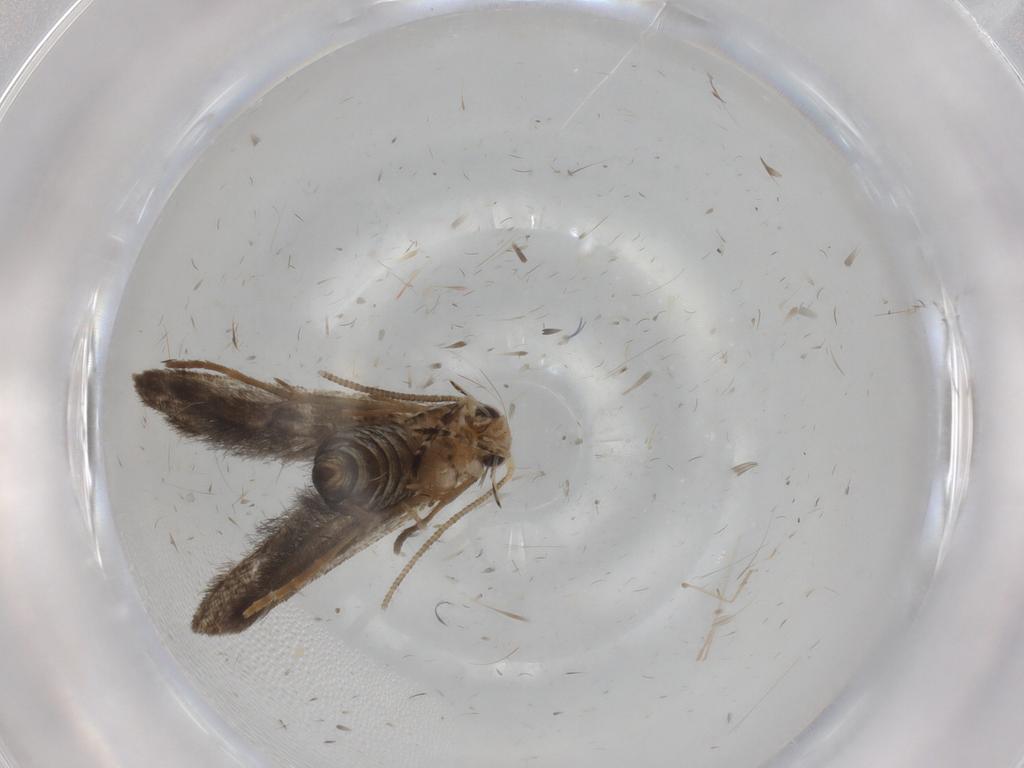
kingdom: Animalia
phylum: Arthropoda
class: Insecta
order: Lepidoptera
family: Tineidae
